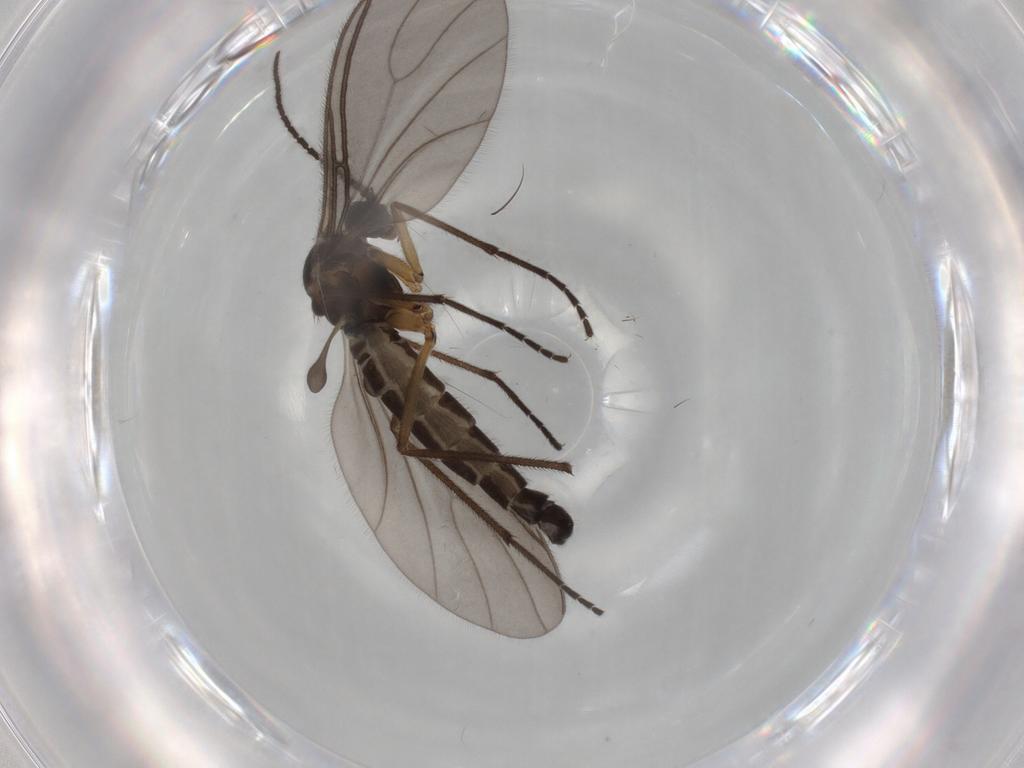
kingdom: Animalia
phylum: Arthropoda
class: Insecta
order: Diptera
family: Sciaridae
